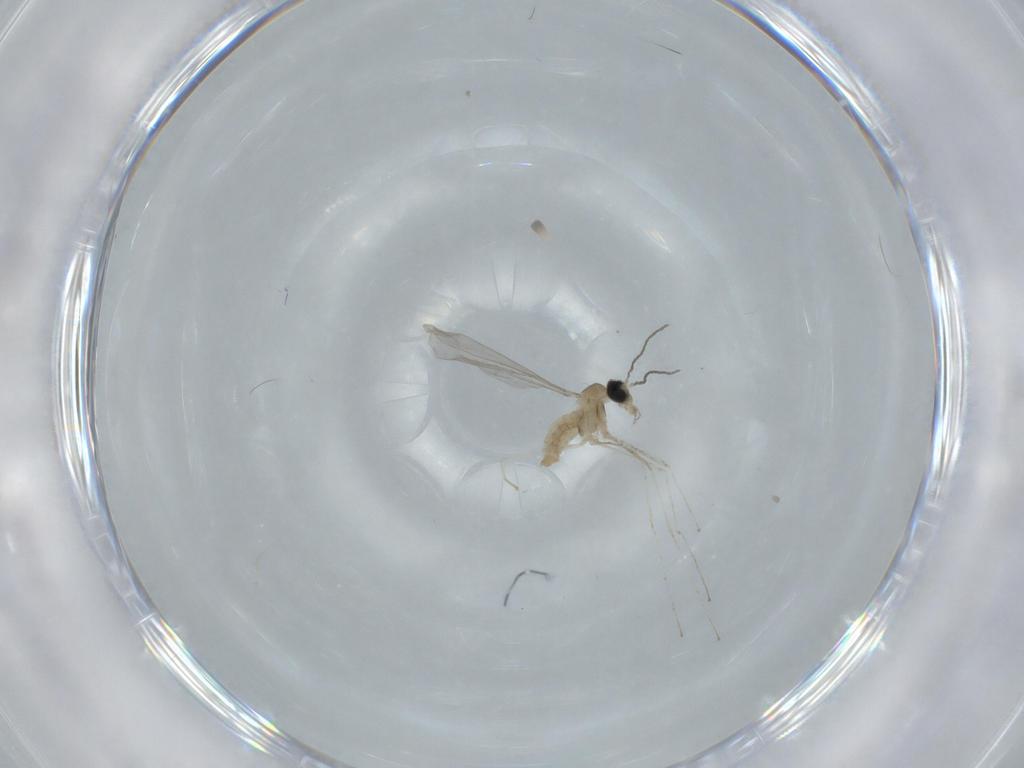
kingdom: Animalia
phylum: Arthropoda
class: Insecta
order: Diptera
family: Cecidomyiidae
